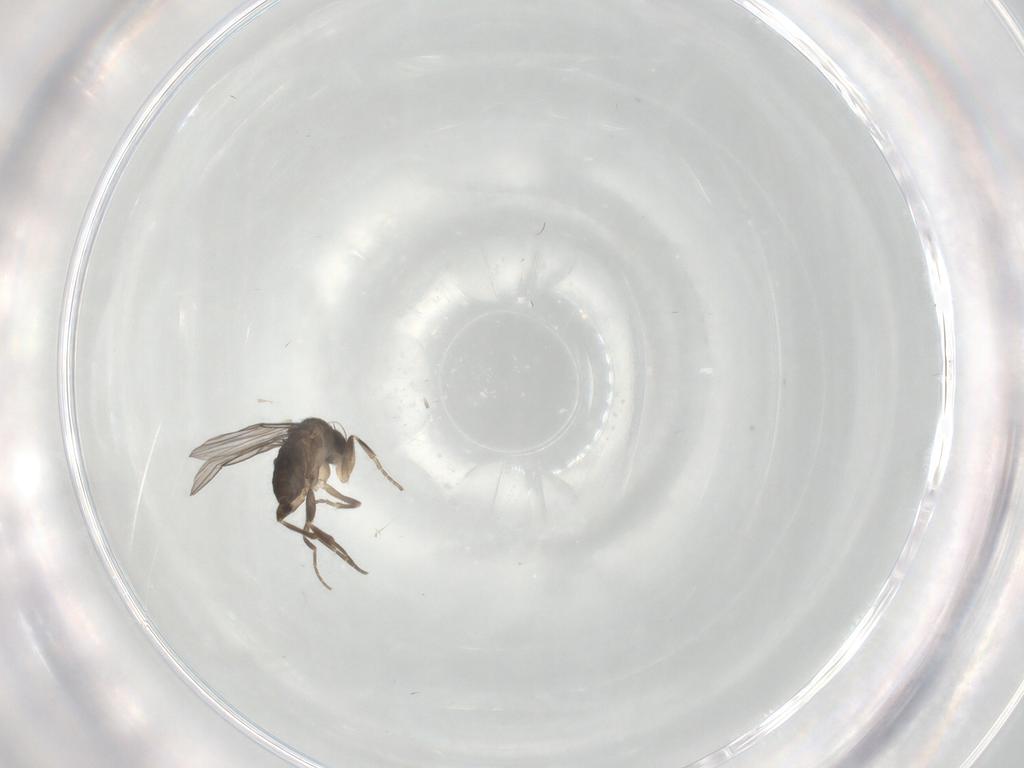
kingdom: Animalia
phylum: Arthropoda
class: Insecta
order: Diptera
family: Phoridae
